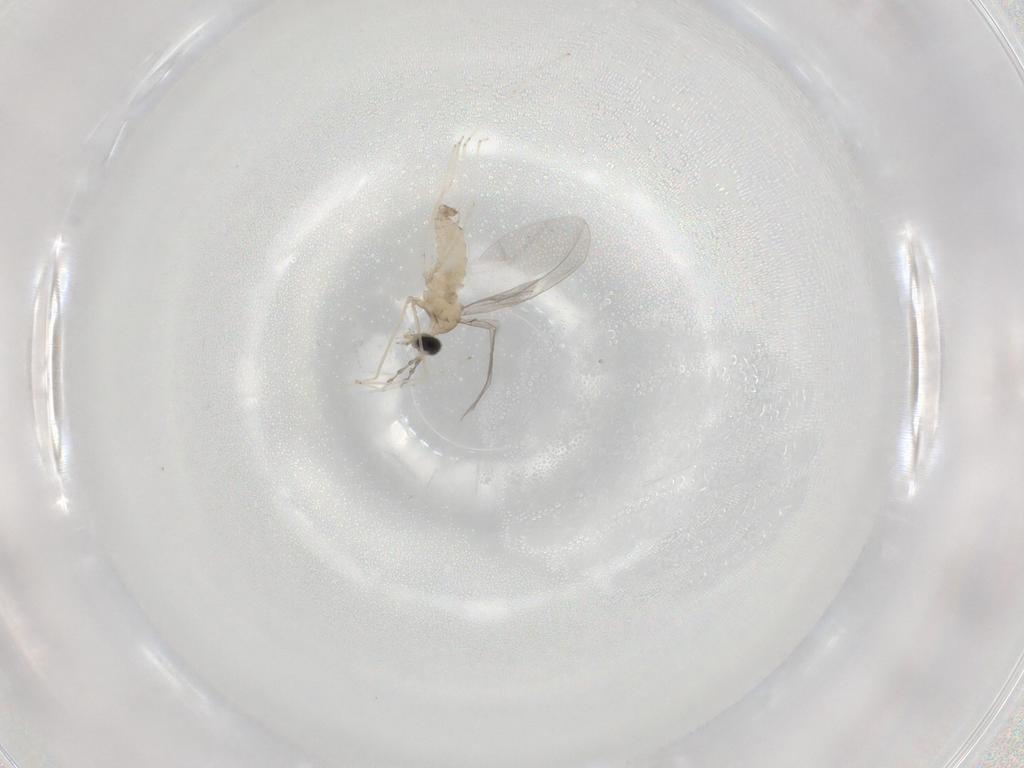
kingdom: Animalia
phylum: Arthropoda
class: Insecta
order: Diptera
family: Cecidomyiidae
